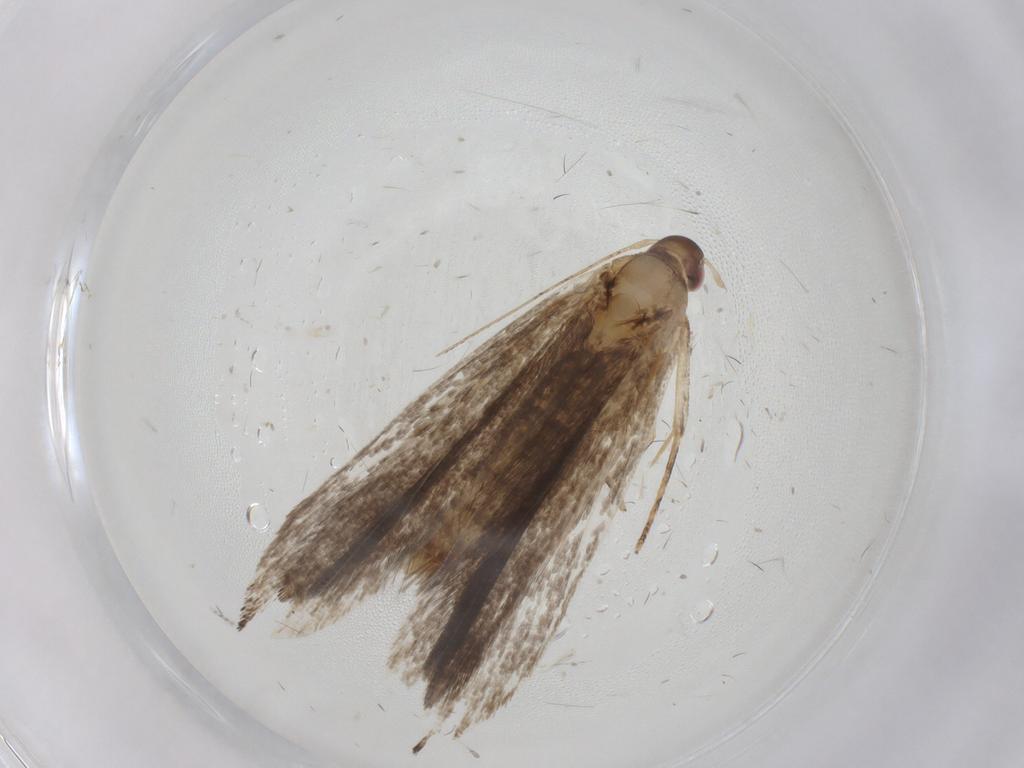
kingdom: Animalia
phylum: Arthropoda
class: Insecta
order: Lepidoptera
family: Gelechiidae
